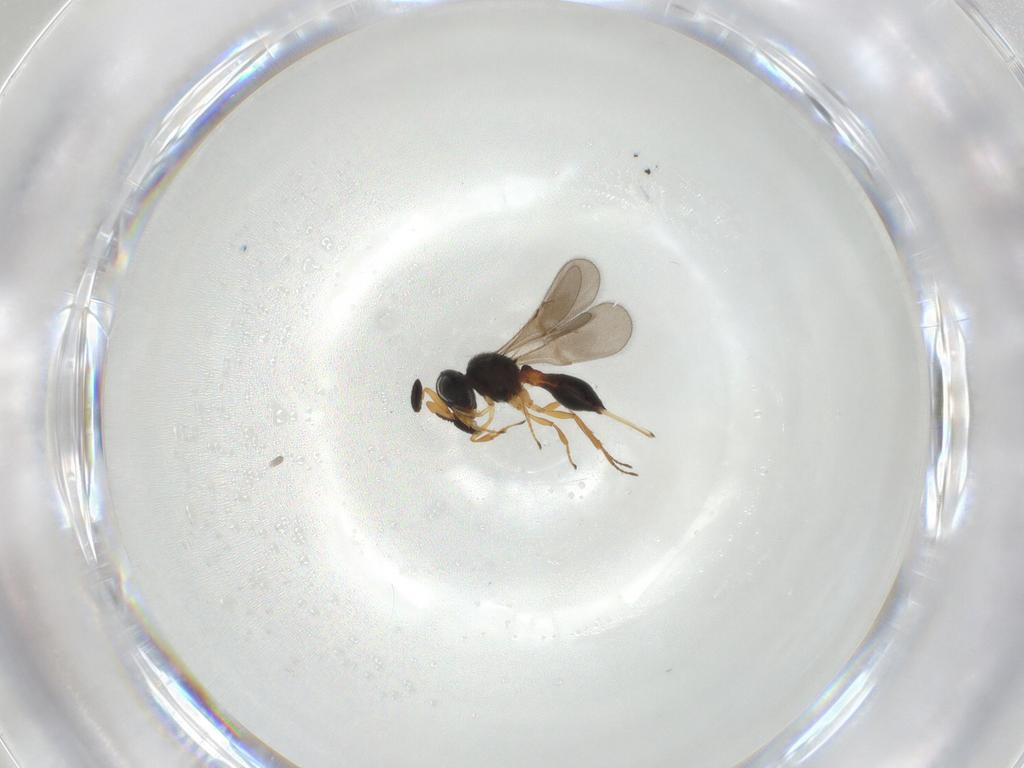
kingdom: Animalia
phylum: Arthropoda
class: Insecta
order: Hymenoptera
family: Scelionidae
